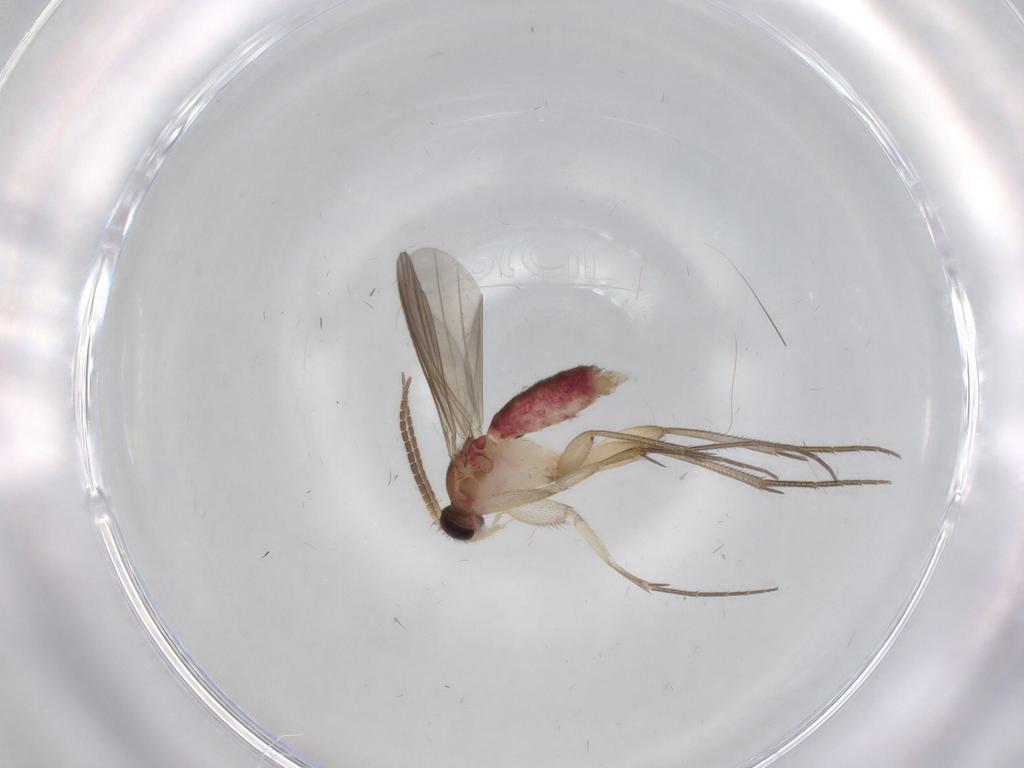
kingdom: Animalia
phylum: Arthropoda
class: Insecta
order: Diptera
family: Mycetophilidae
